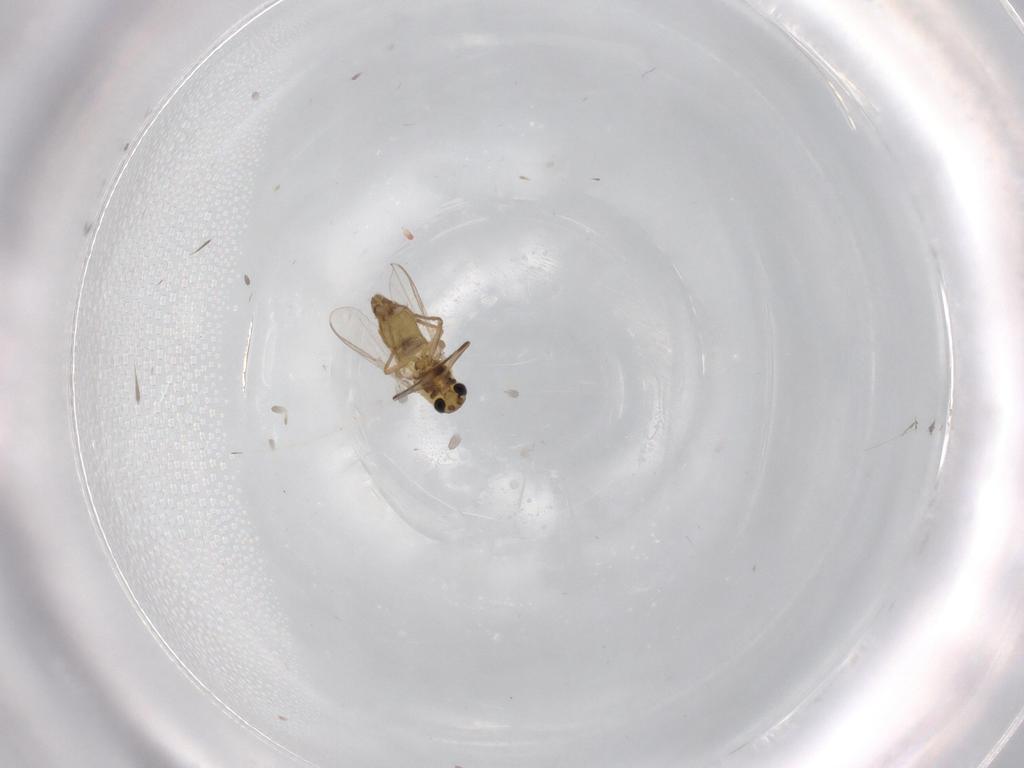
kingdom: Animalia
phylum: Arthropoda
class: Insecta
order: Diptera
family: Chironomidae
